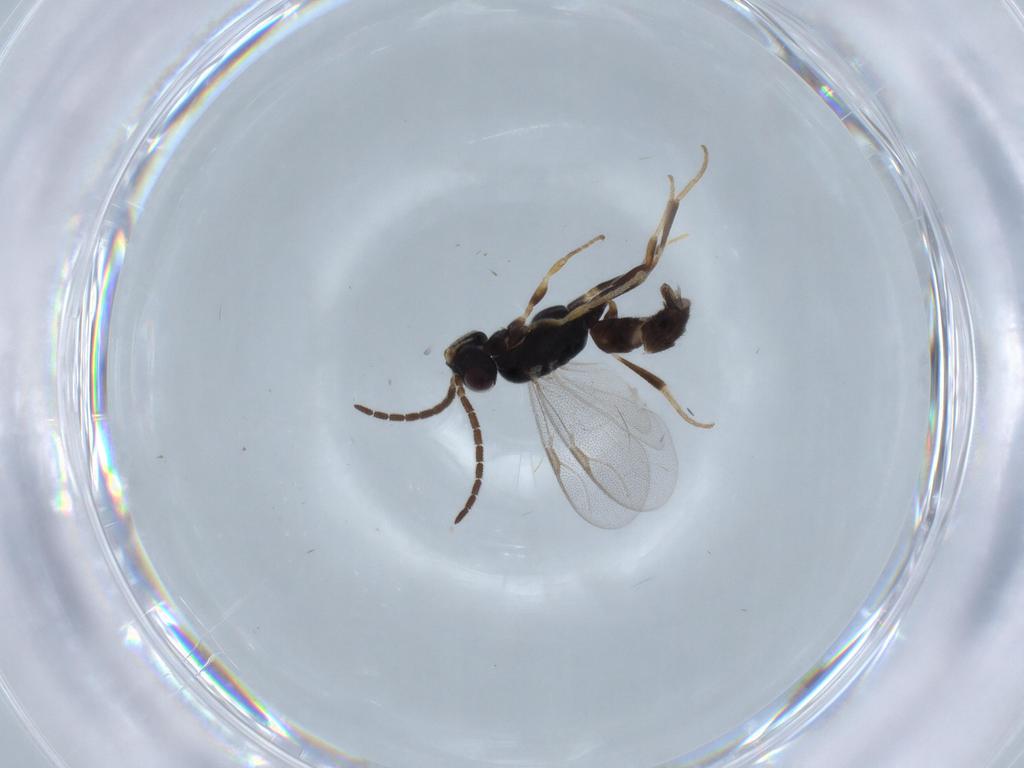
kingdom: Animalia
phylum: Arthropoda
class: Insecta
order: Hymenoptera
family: Dryinidae
